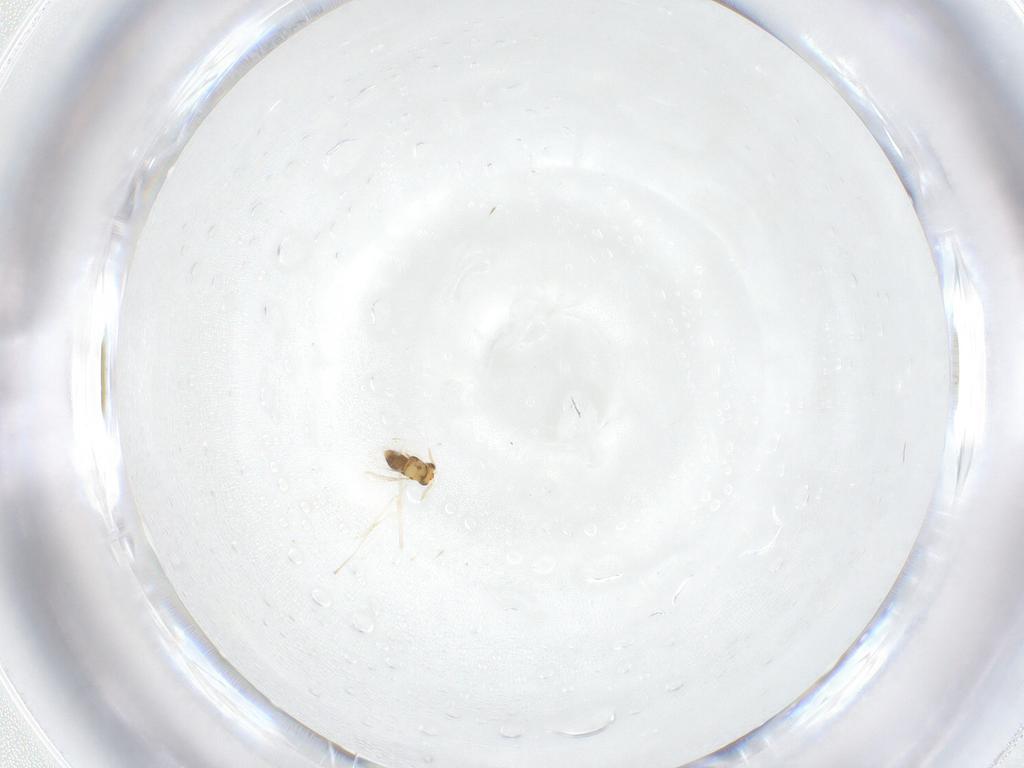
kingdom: Animalia
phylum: Arthropoda
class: Insecta
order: Hymenoptera
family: Aphelinidae
